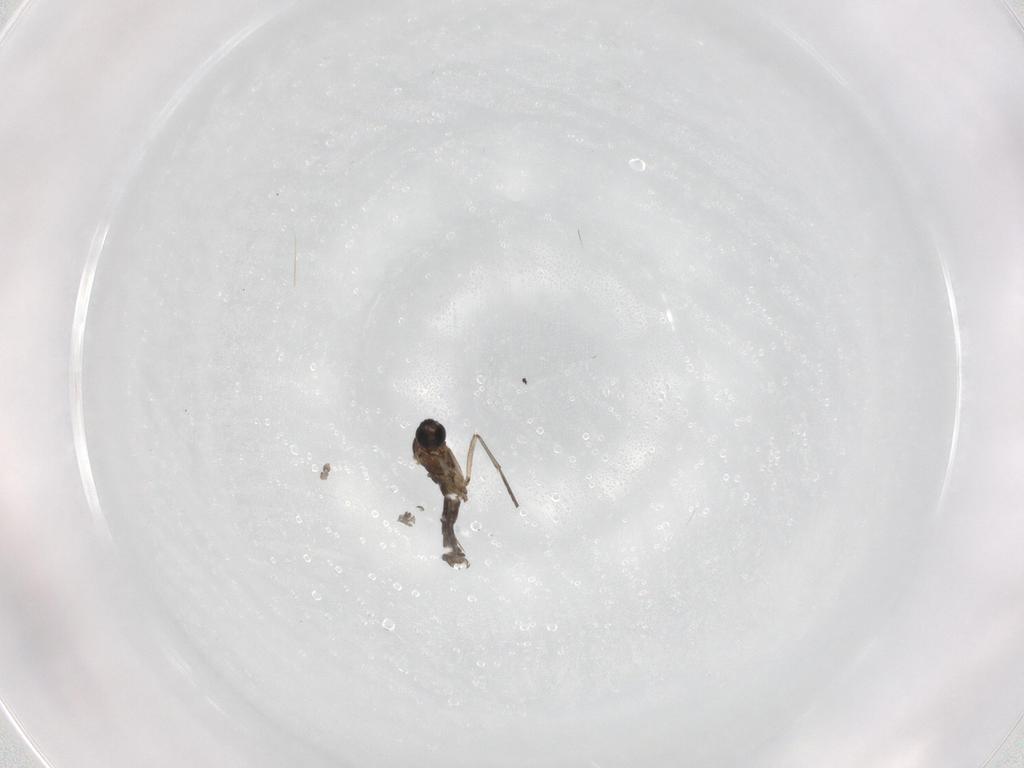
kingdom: Animalia
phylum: Arthropoda
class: Insecta
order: Diptera
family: Sciaridae
